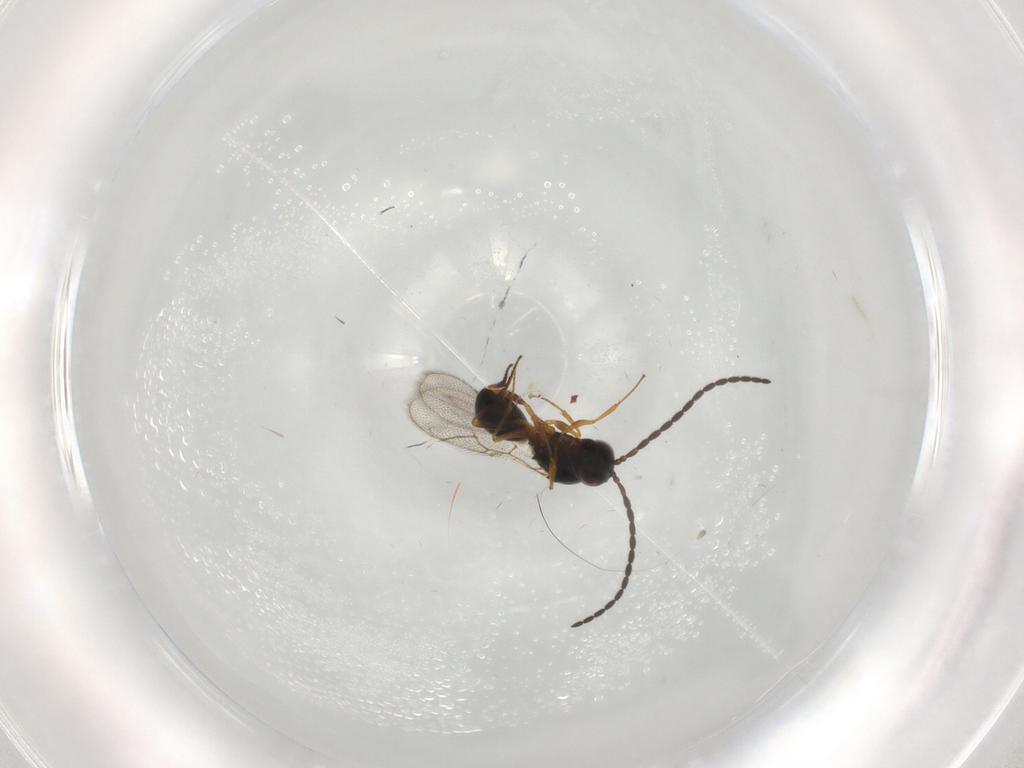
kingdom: Animalia
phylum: Arthropoda
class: Insecta
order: Hymenoptera
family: Figitidae
